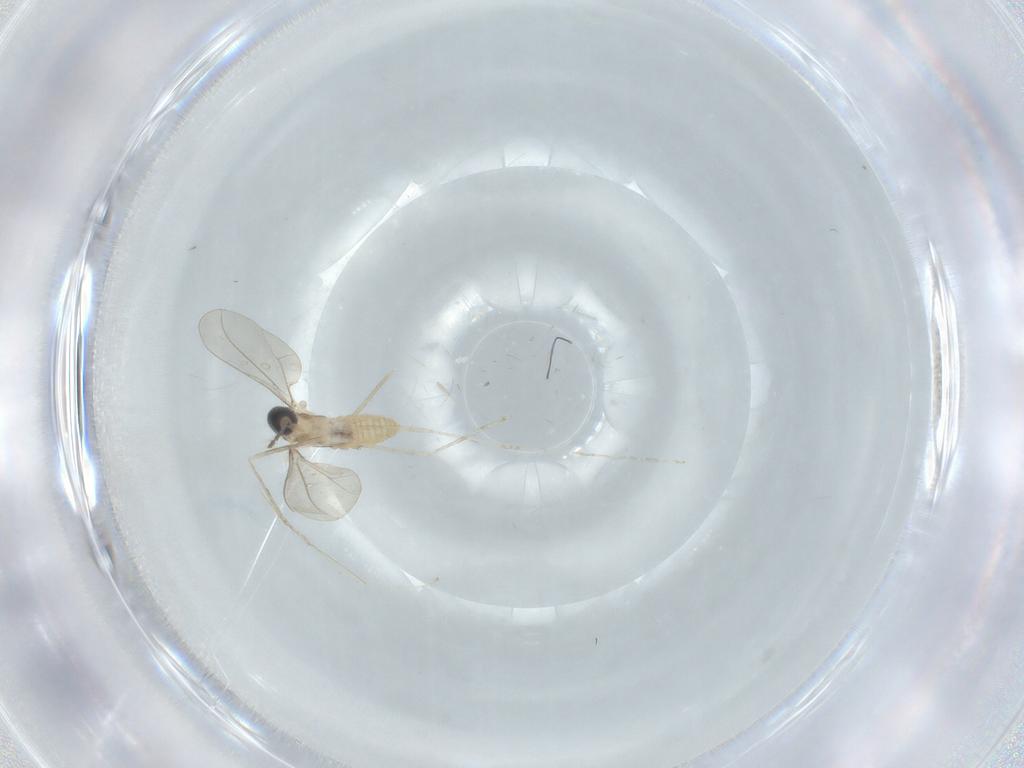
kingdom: Animalia
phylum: Arthropoda
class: Insecta
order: Diptera
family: Cecidomyiidae
